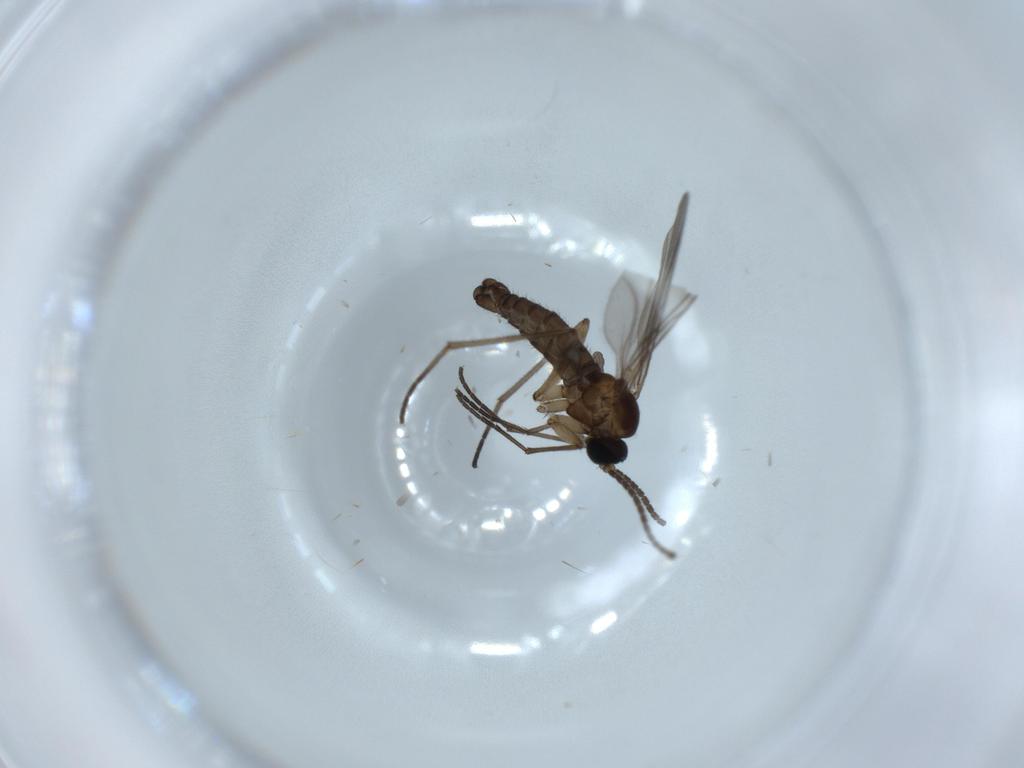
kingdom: Animalia
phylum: Arthropoda
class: Insecta
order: Diptera
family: Sciaridae
